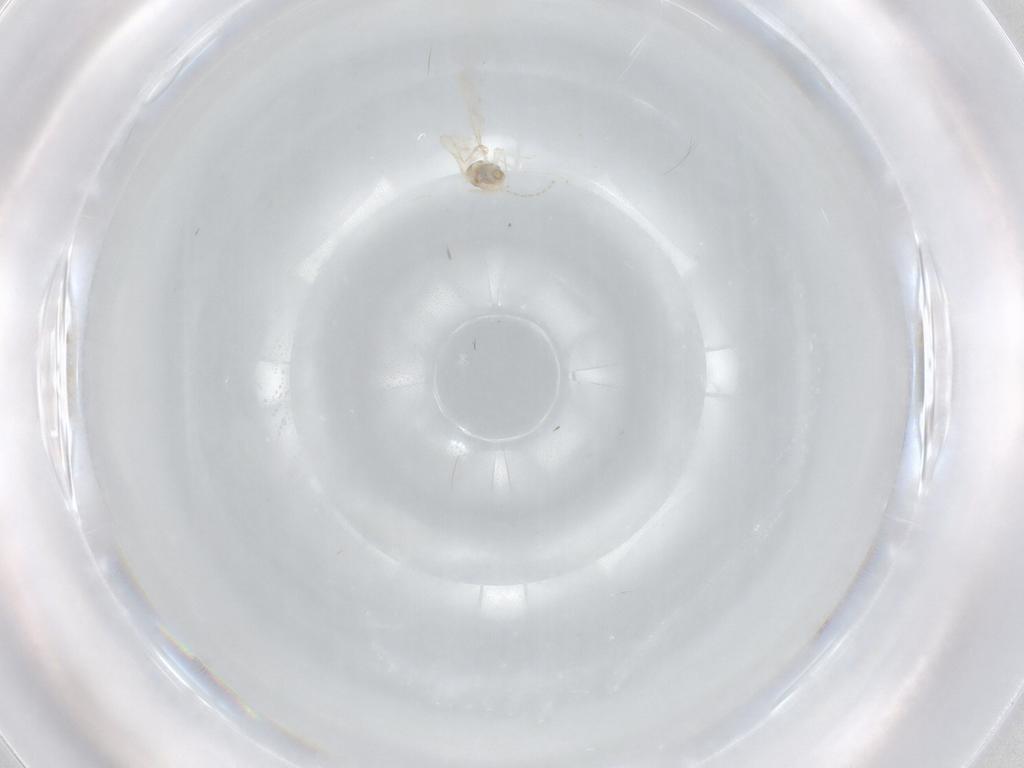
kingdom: Animalia
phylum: Arthropoda
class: Insecta
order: Diptera
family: Cecidomyiidae
